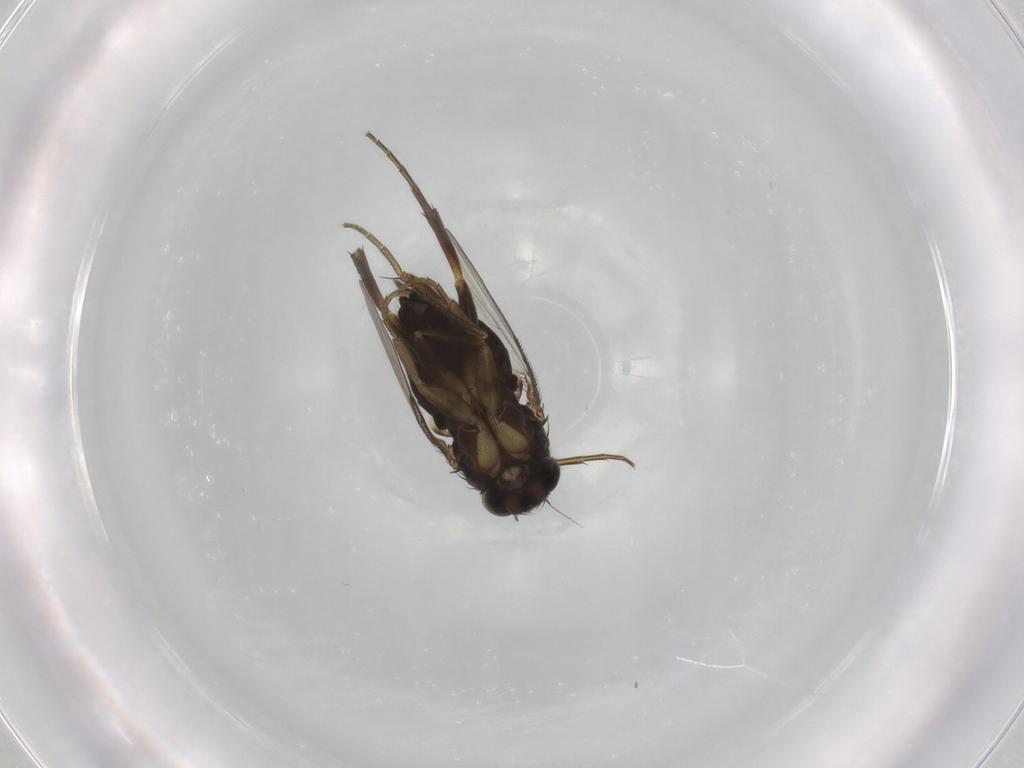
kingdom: Animalia
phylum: Arthropoda
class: Insecta
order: Diptera
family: Phoridae
